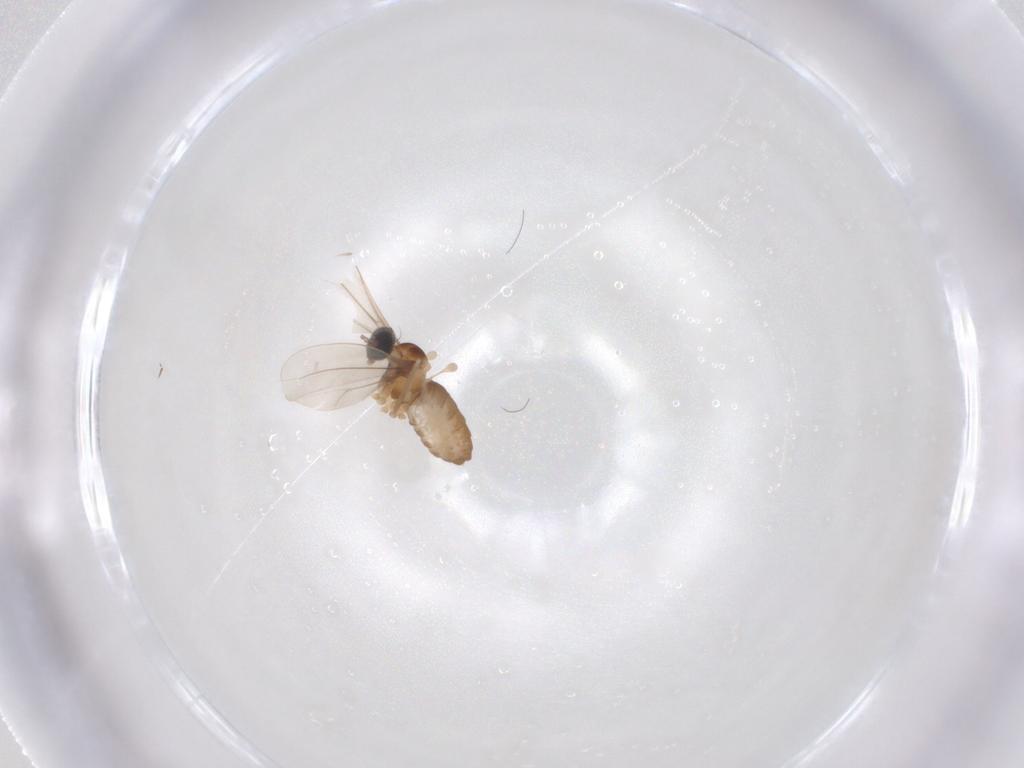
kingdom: Animalia
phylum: Arthropoda
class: Insecta
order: Diptera
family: Cecidomyiidae
